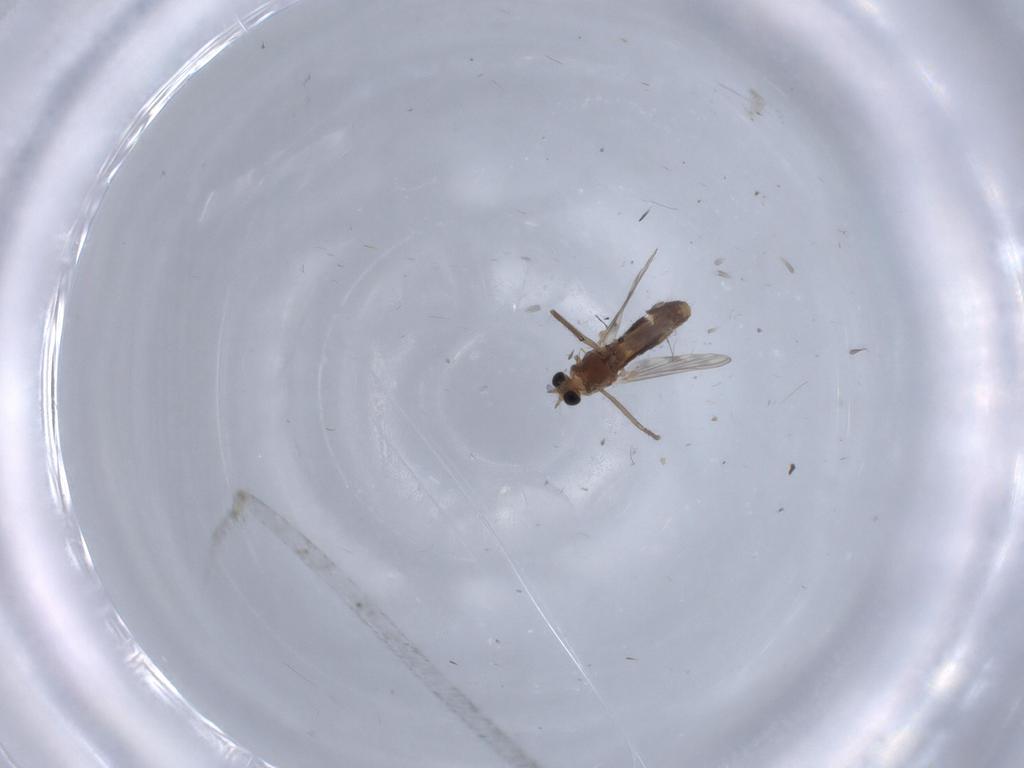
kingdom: Animalia
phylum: Arthropoda
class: Insecta
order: Diptera
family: Chironomidae
